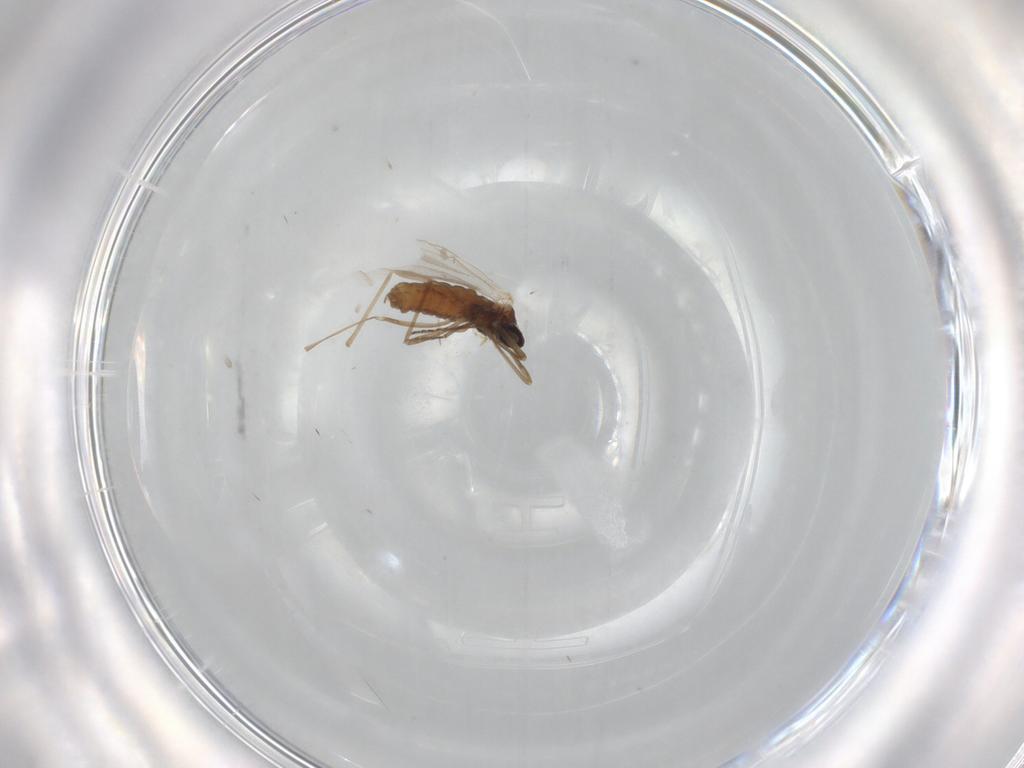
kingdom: Animalia
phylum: Arthropoda
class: Insecta
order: Diptera
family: Cecidomyiidae
